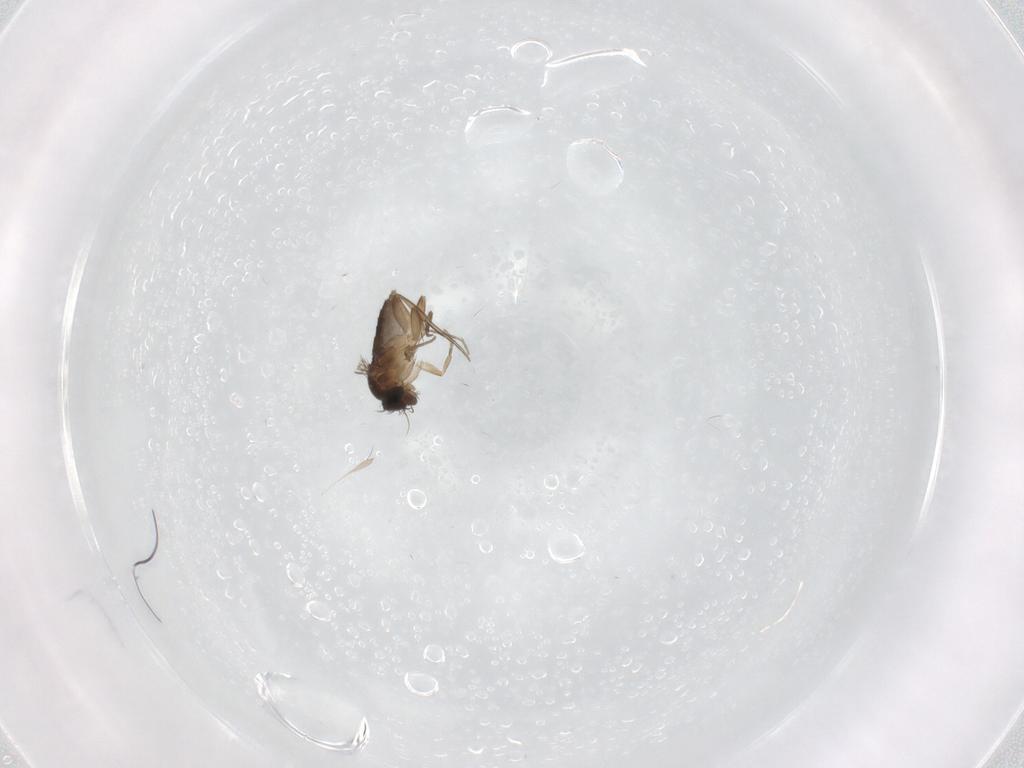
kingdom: Animalia
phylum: Arthropoda
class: Insecta
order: Diptera
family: Phoridae
